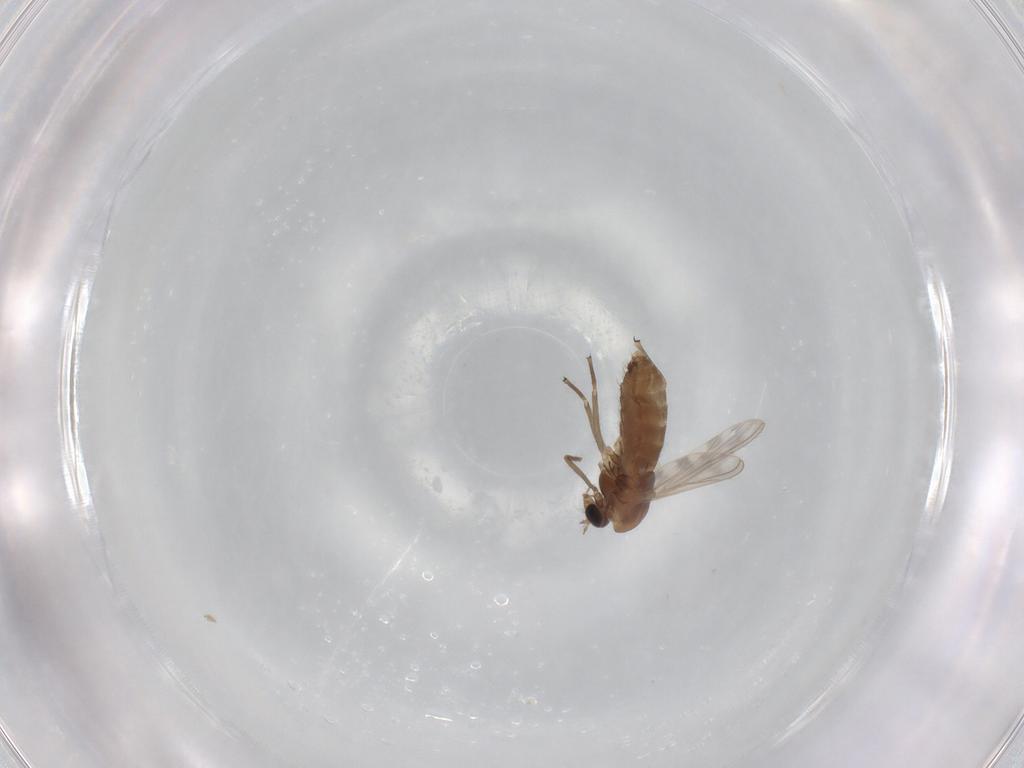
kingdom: Animalia
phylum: Arthropoda
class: Insecta
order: Diptera
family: Chironomidae
